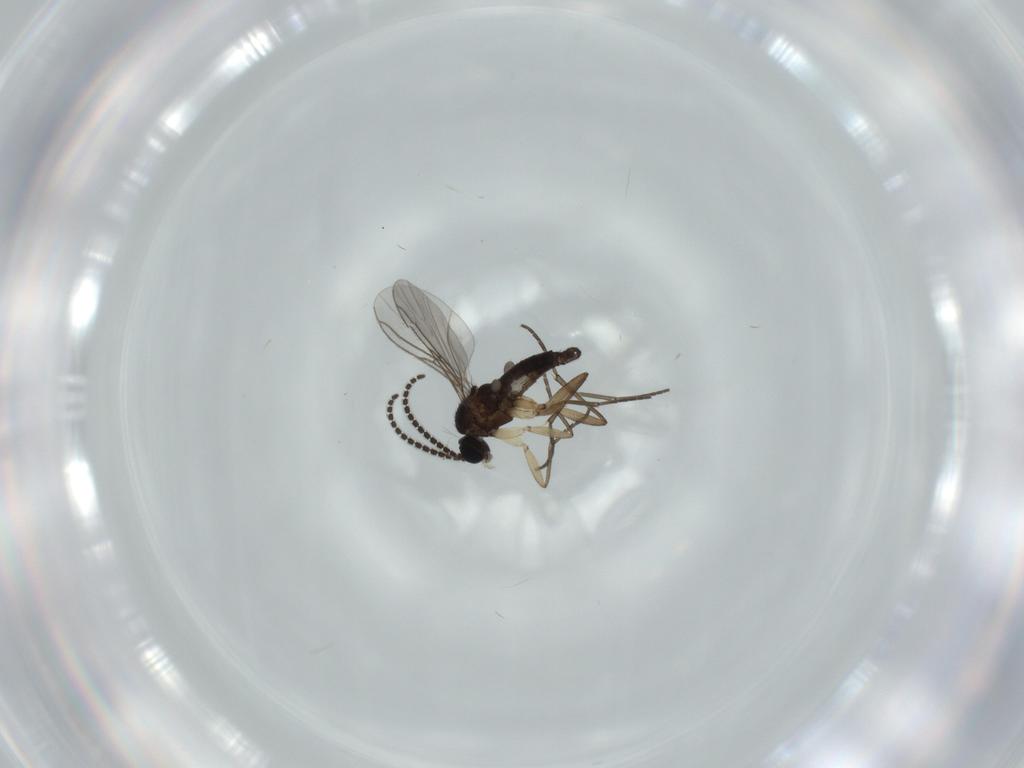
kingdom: Animalia
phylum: Arthropoda
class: Insecta
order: Diptera
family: Sciaridae
